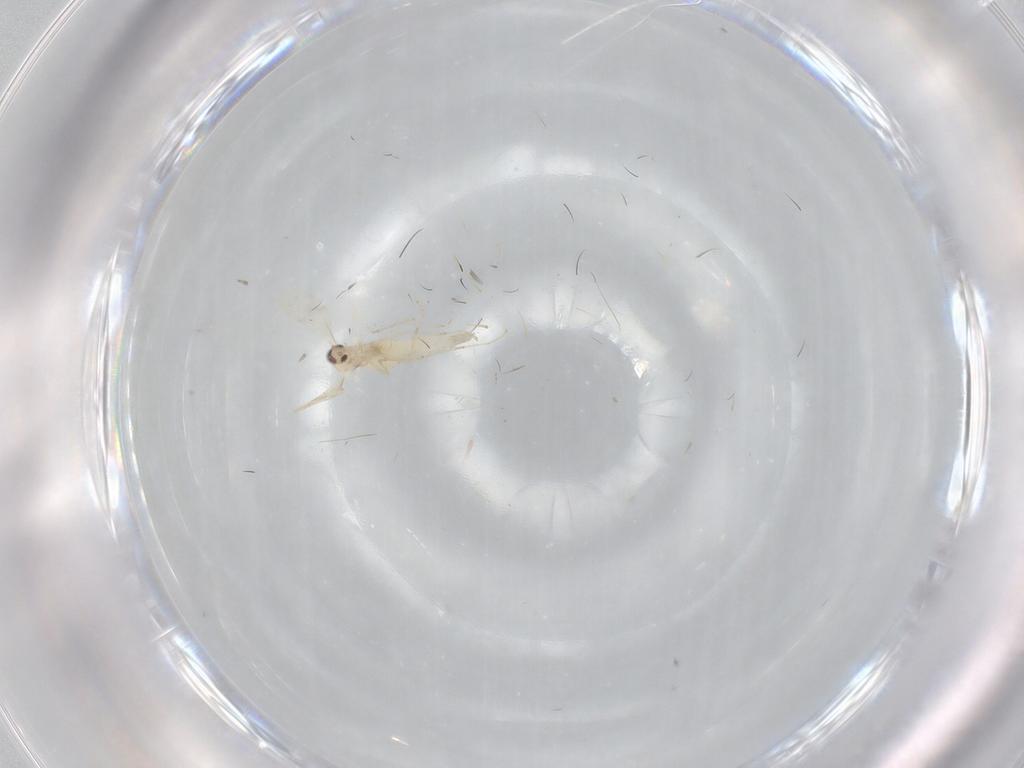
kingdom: Animalia
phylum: Arthropoda
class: Insecta
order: Diptera
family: Cecidomyiidae
